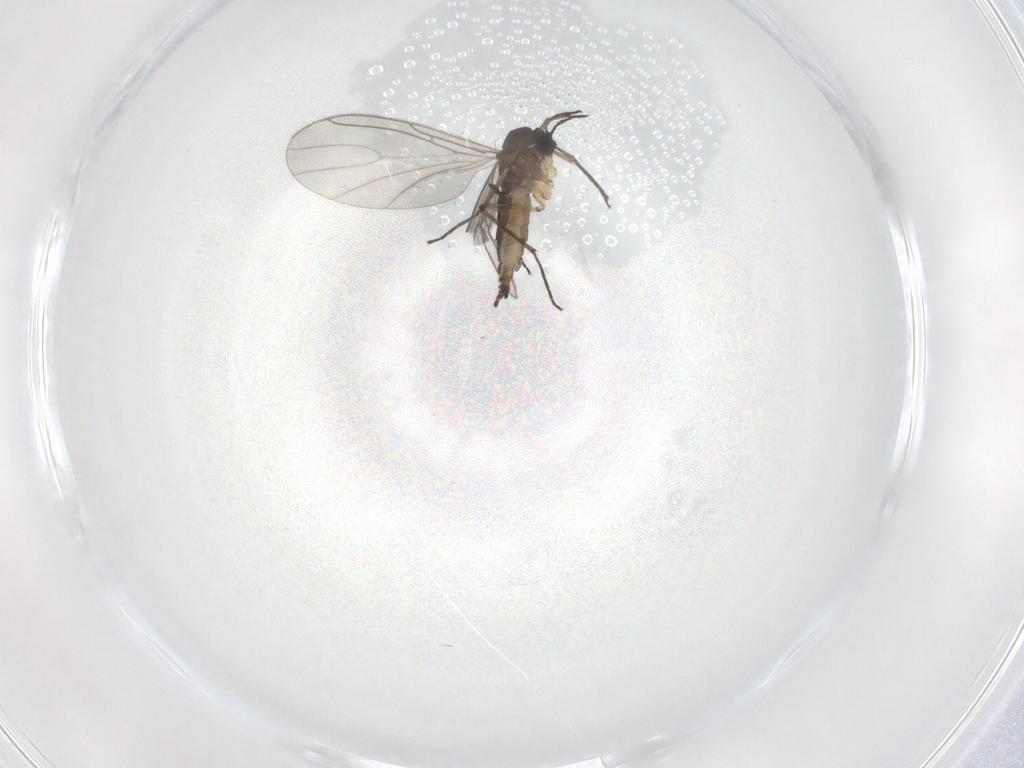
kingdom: Animalia
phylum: Arthropoda
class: Insecta
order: Diptera
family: Sciaridae
